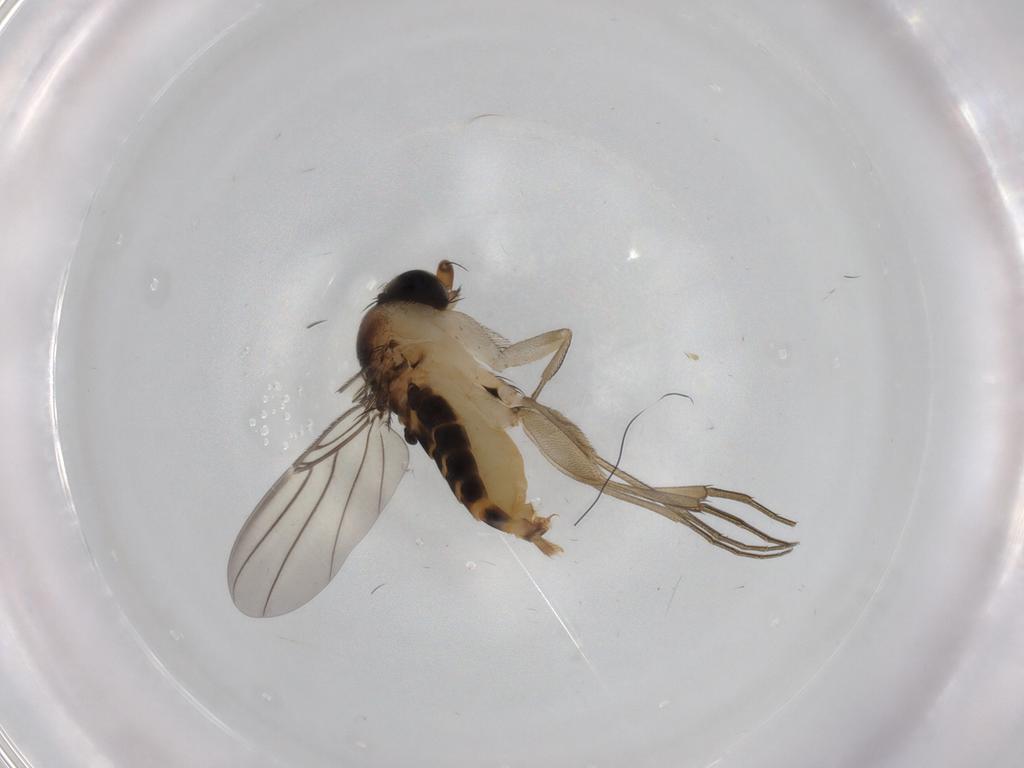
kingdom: Animalia
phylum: Arthropoda
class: Insecta
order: Diptera
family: Phoridae
